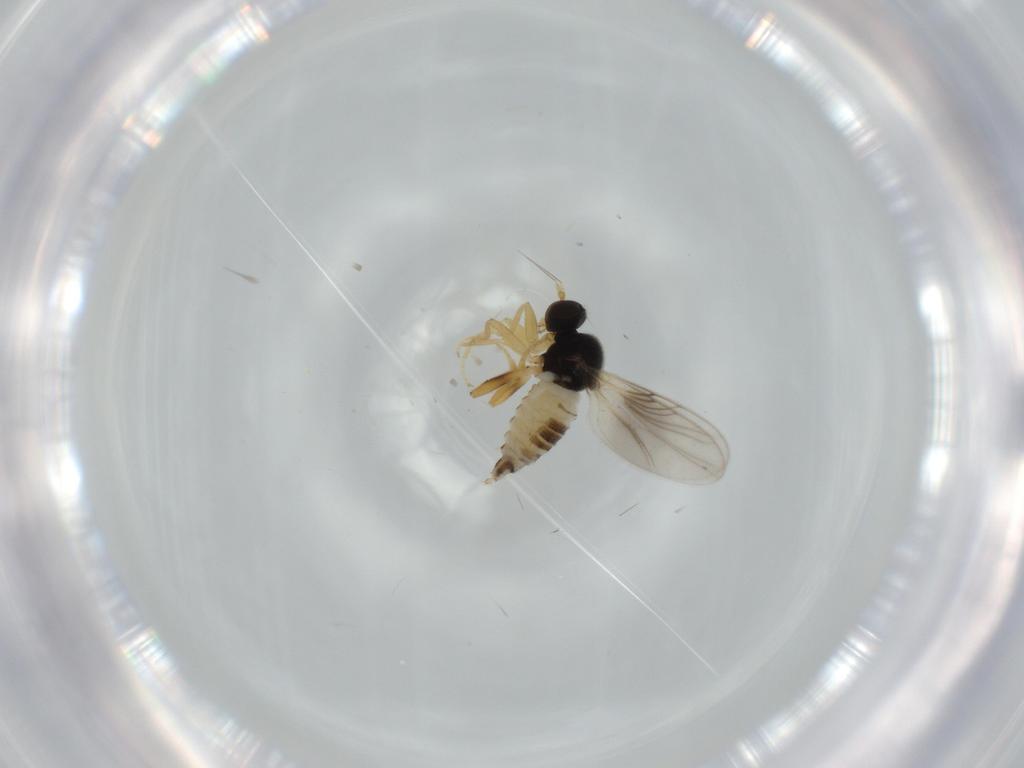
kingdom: Animalia
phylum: Arthropoda
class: Insecta
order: Diptera
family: Hybotidae
